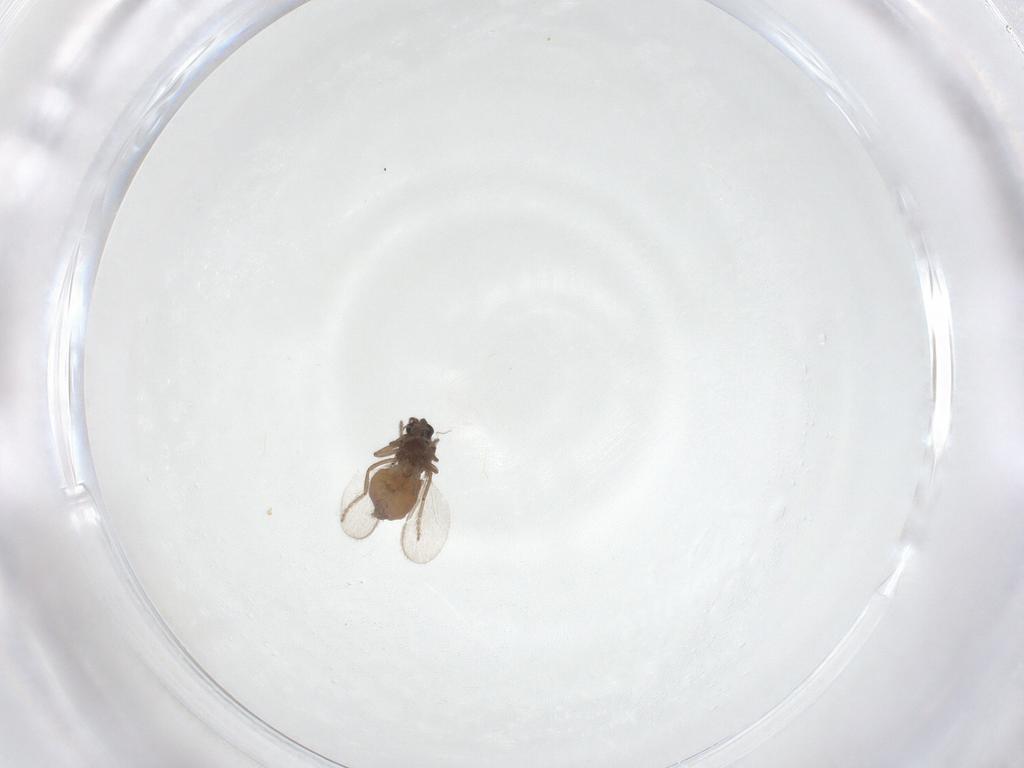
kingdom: Animalia
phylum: Arthropoda
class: Insecta
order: Diptera
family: Ceratopogonidae
